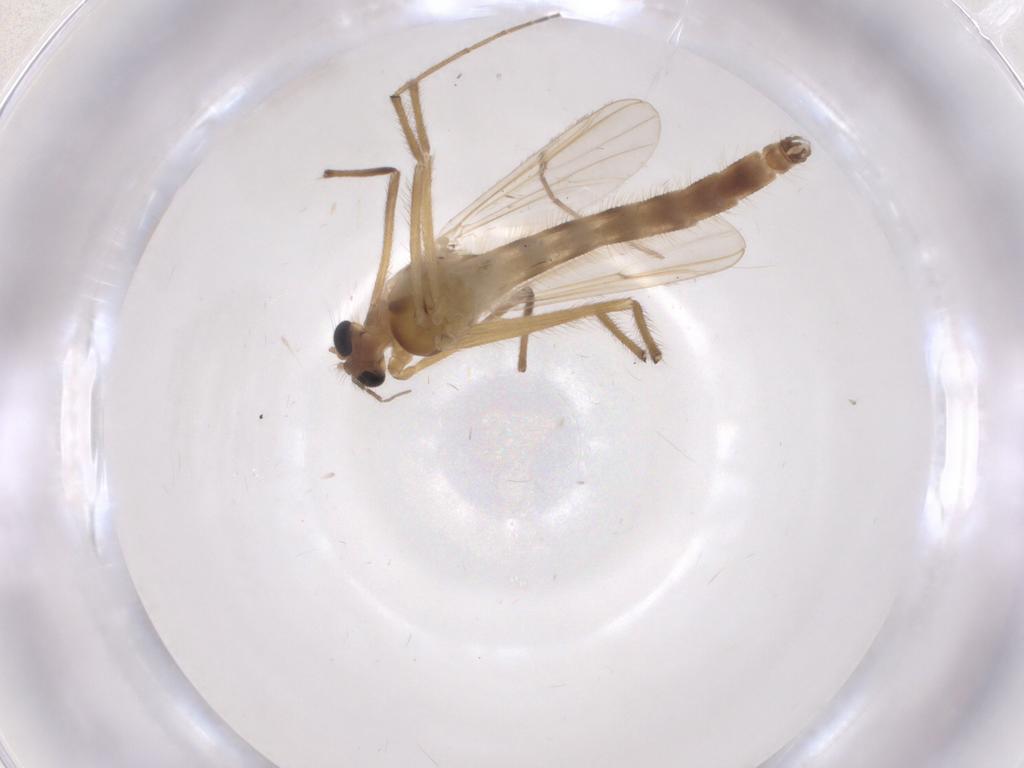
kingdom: Animalia
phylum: Arthropoda
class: Insecta
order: Diptera
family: Chironomidae
